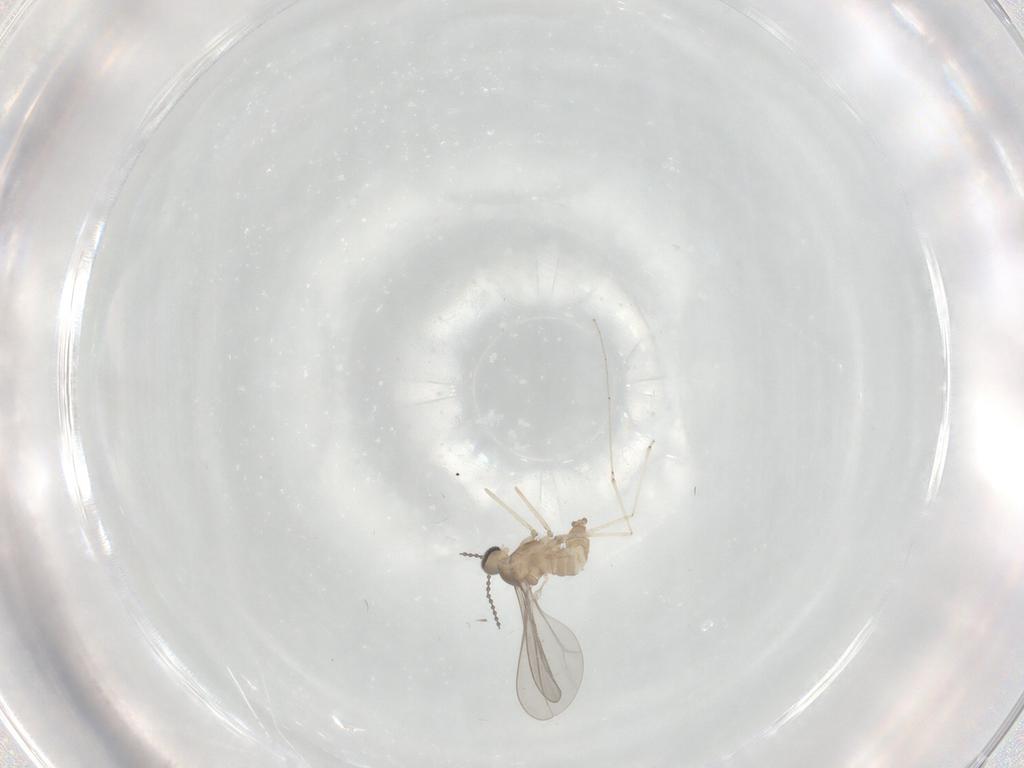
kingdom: Animalia
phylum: Arthropoda
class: Insecta
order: Diptera
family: Cecidomyiidae
